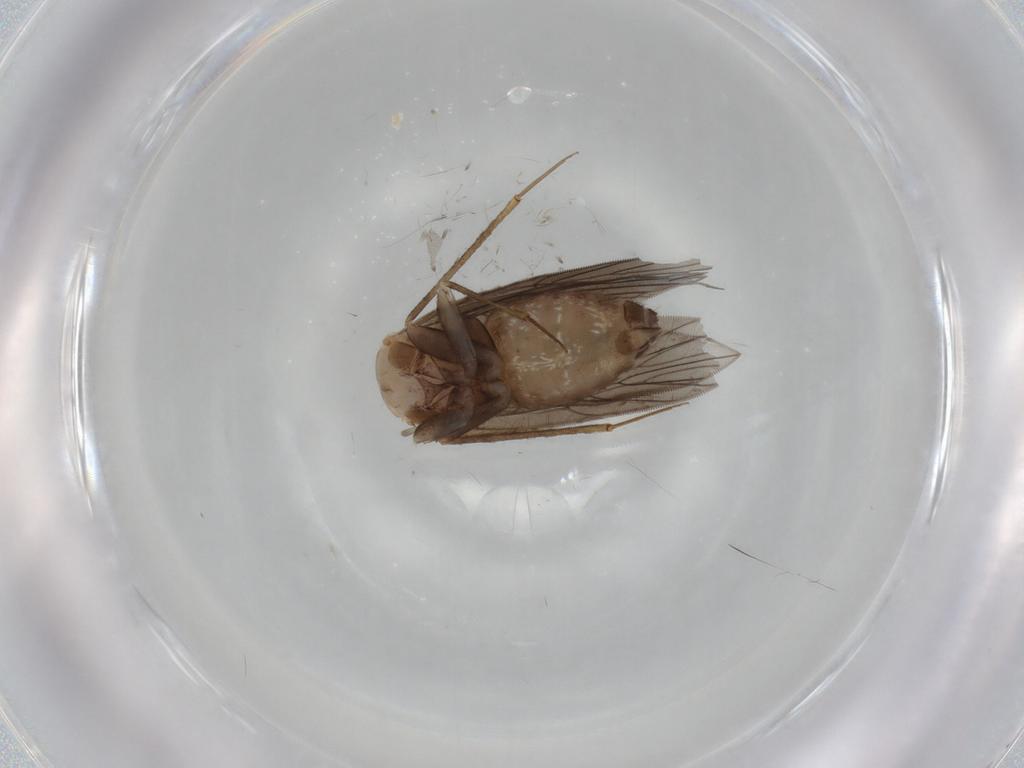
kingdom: Animalia
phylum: Arthropoda
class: Insecta
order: Psocodea
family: Lepidopsocidae
